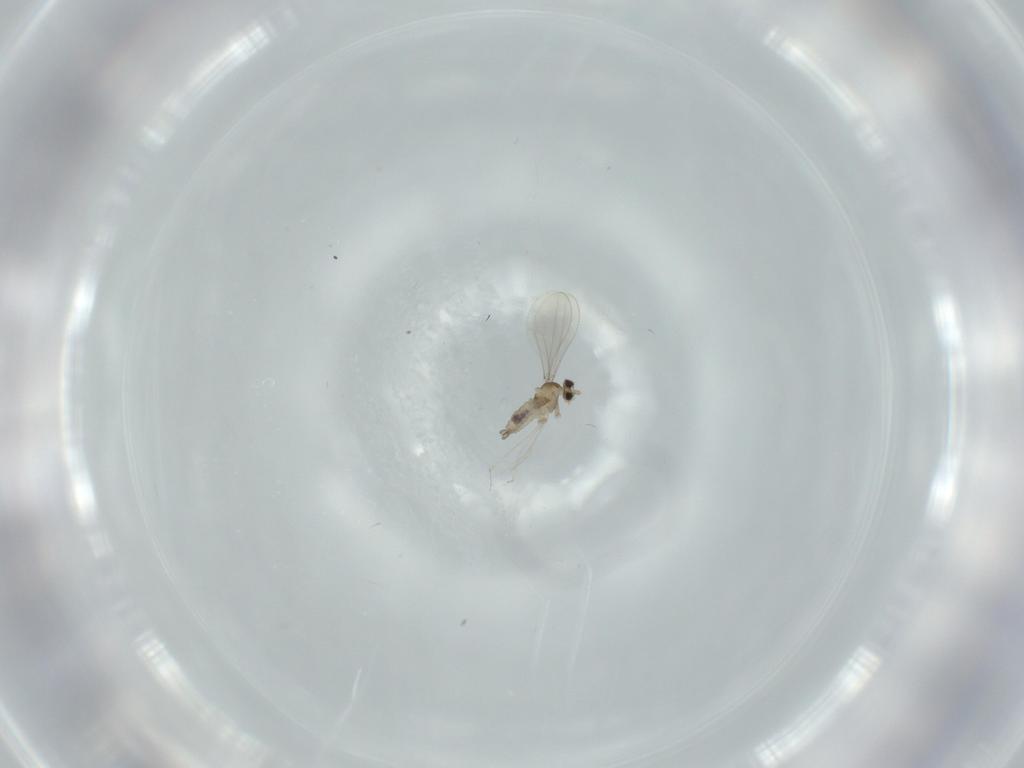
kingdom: Animalia
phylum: Arthropoda
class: Insecta
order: Diptera
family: Cecidomyiidae
